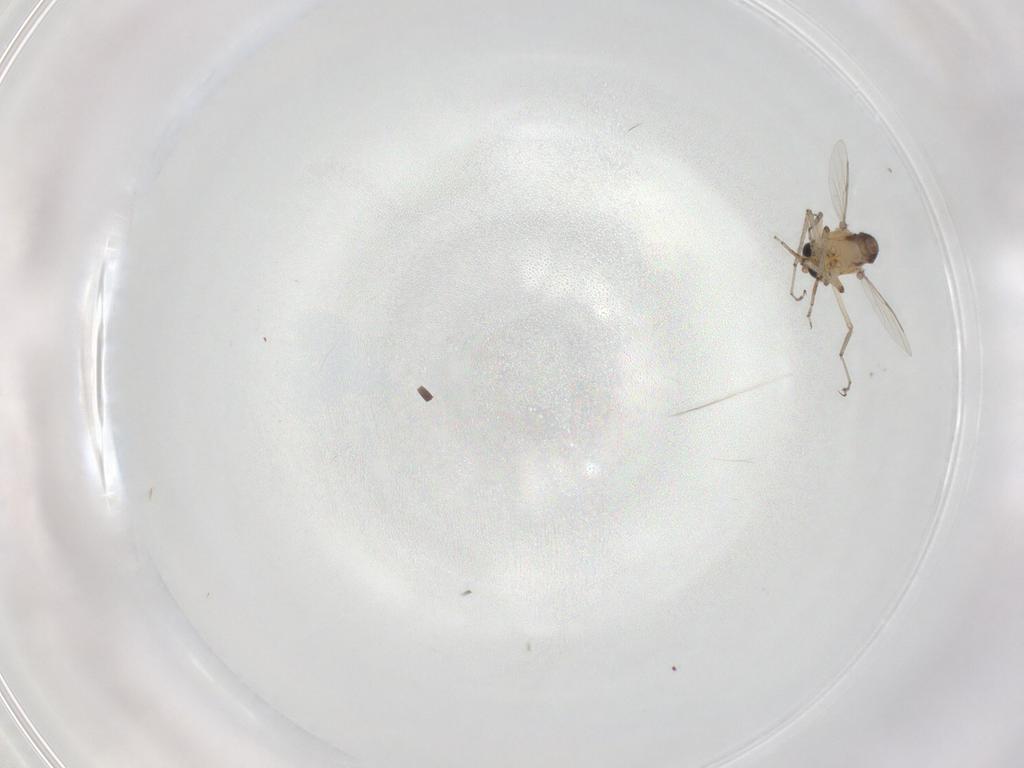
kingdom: Animalia
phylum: Arthropoda
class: Insecta
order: Diptera
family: Ceratopogonidae
